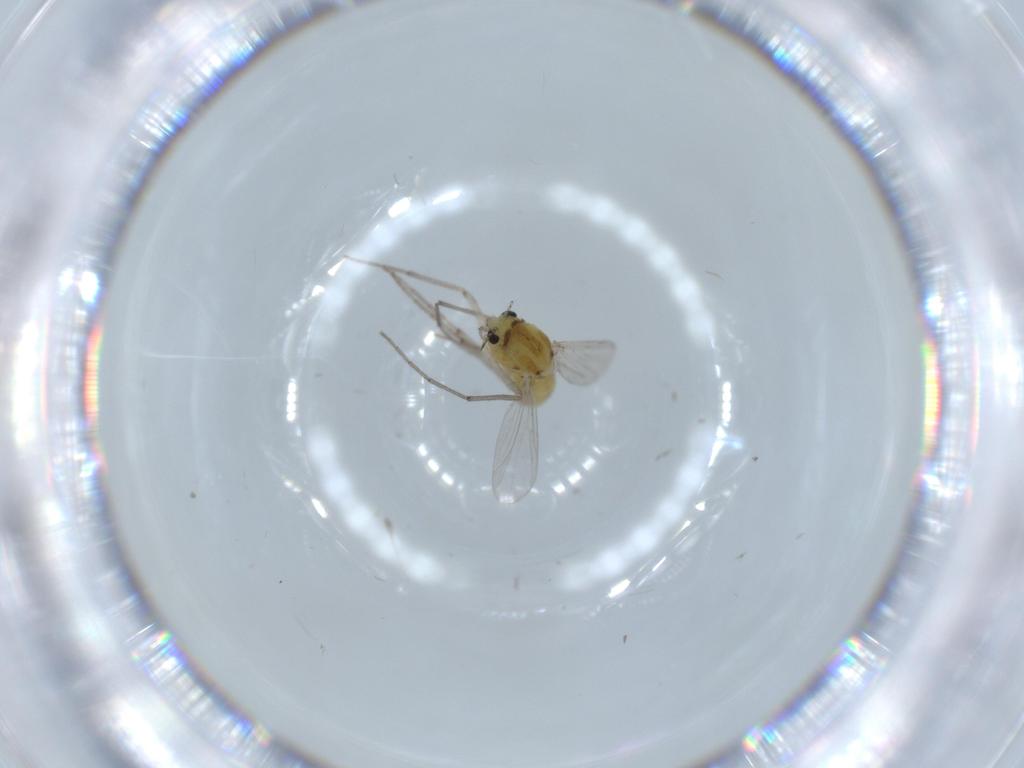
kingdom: Animalia
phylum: Arthropoda
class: Insecta
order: Diptera
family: Chironomidae
